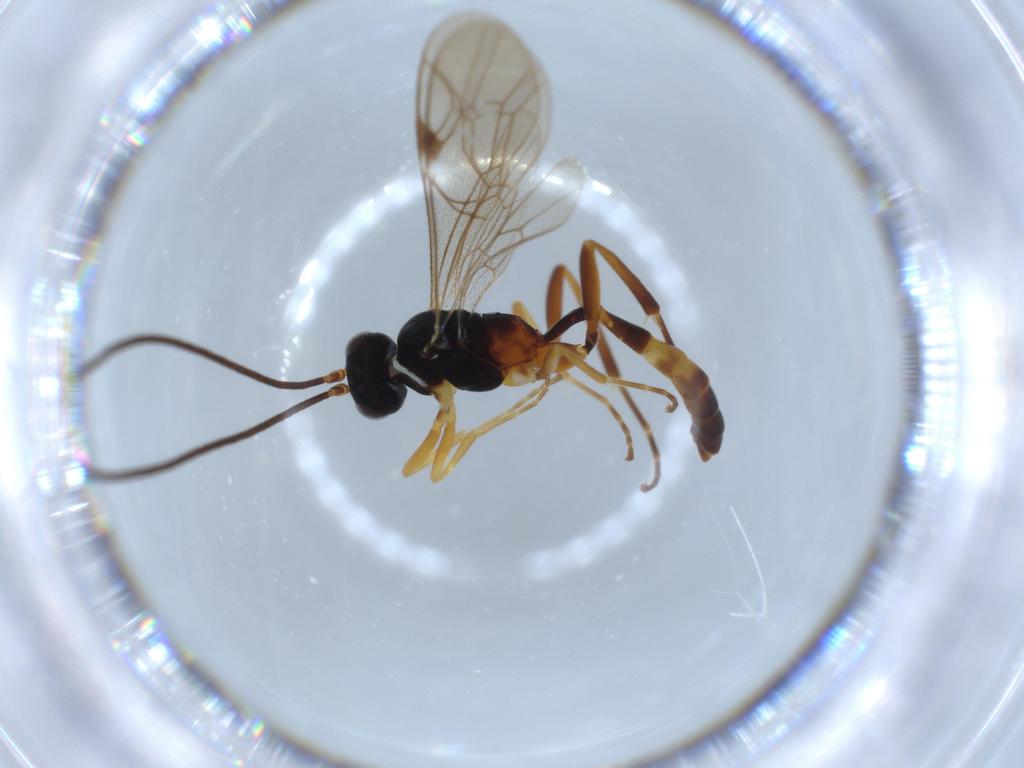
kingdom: Animalia
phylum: Arthropoda
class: Insecta
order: Hymenoptera
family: Ichneumonidae
